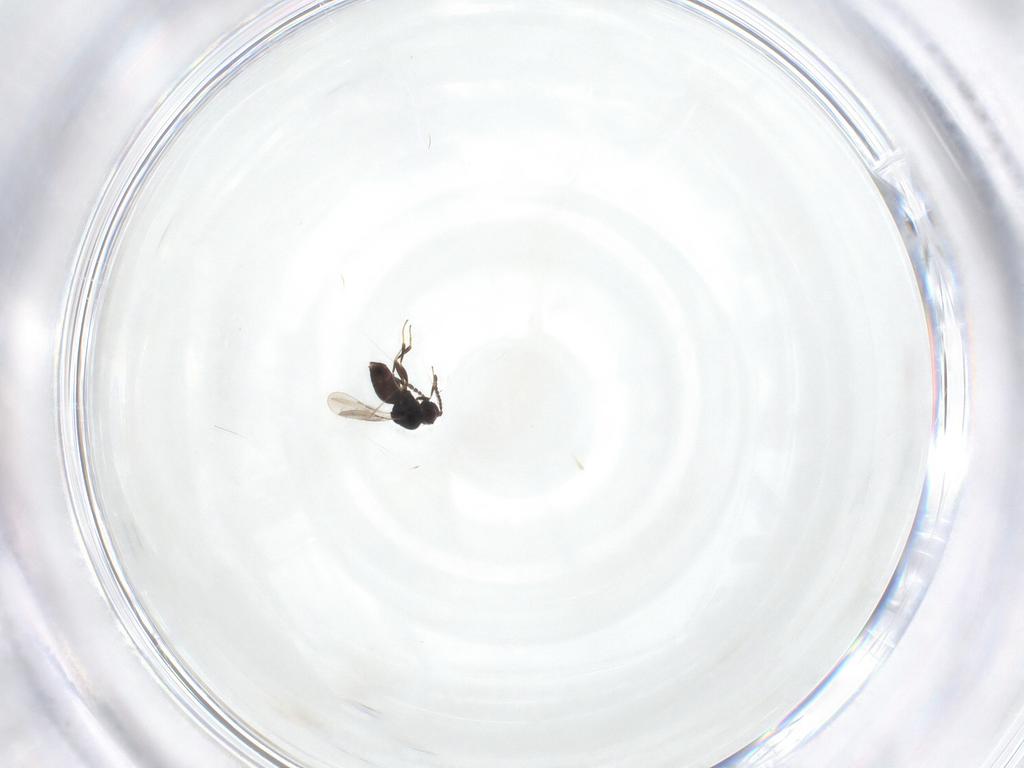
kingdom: Animalia
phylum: Arthropoda
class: Insecta
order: Hymenoptera
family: Ceraphronidae
